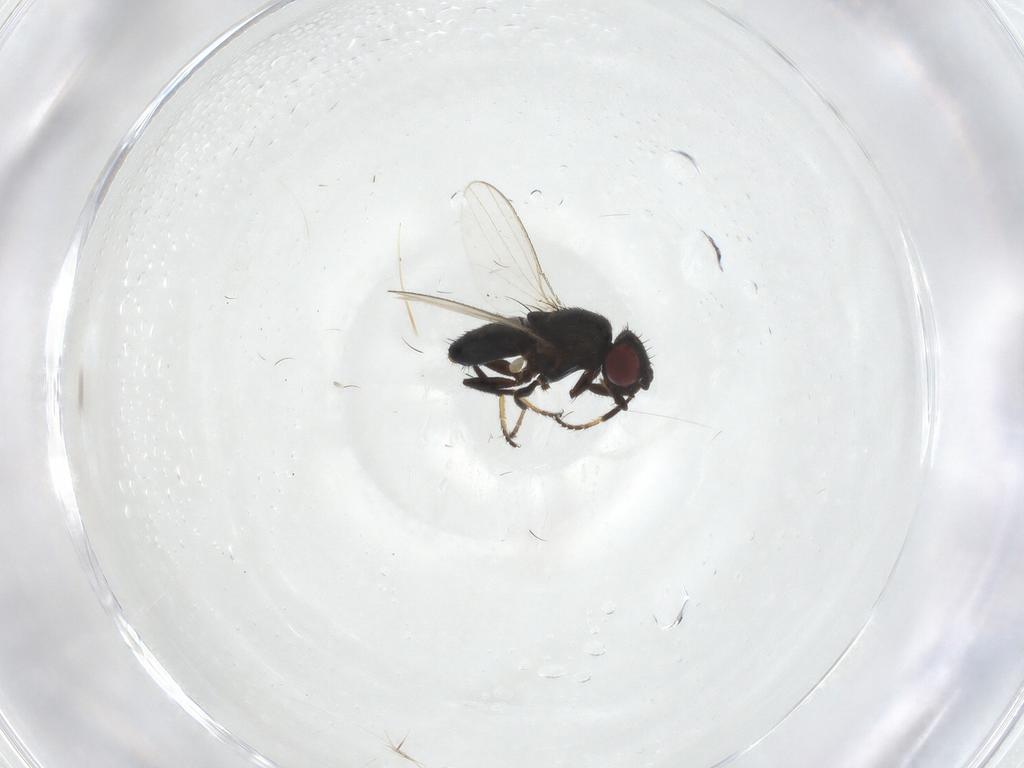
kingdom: Animalia
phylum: Arthropoda
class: Insecta
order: Diptera
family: Milichiidae
